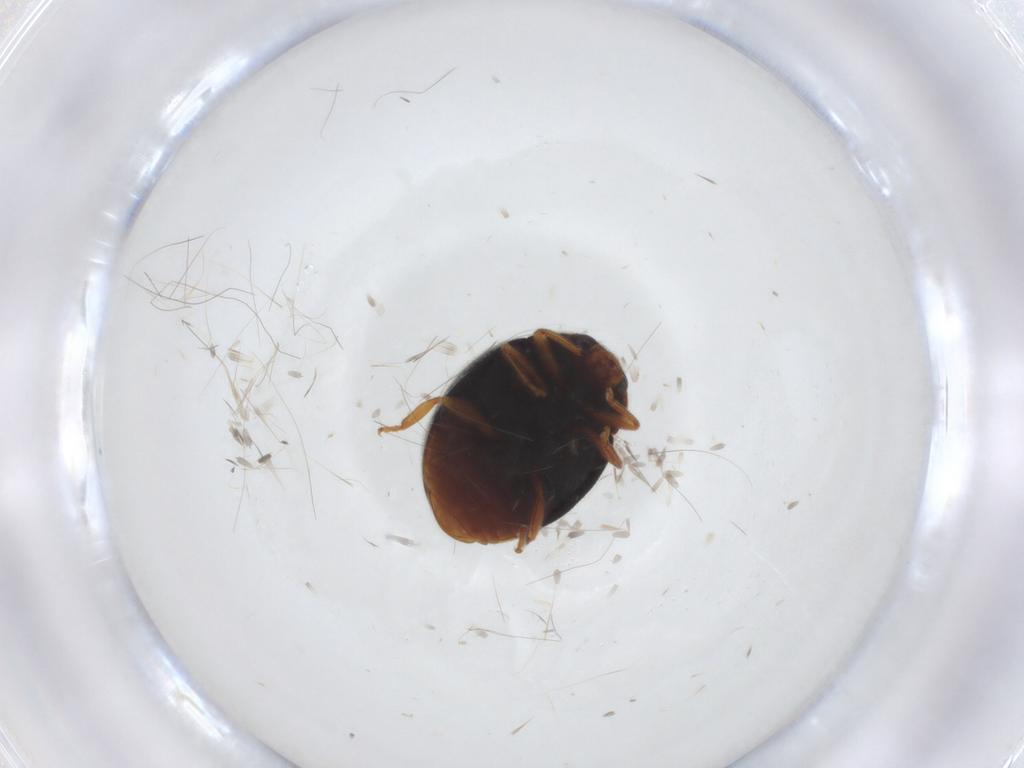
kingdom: Animalia
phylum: Arthropoda
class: Insecta
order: Coleoptera
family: Coccinellidae
